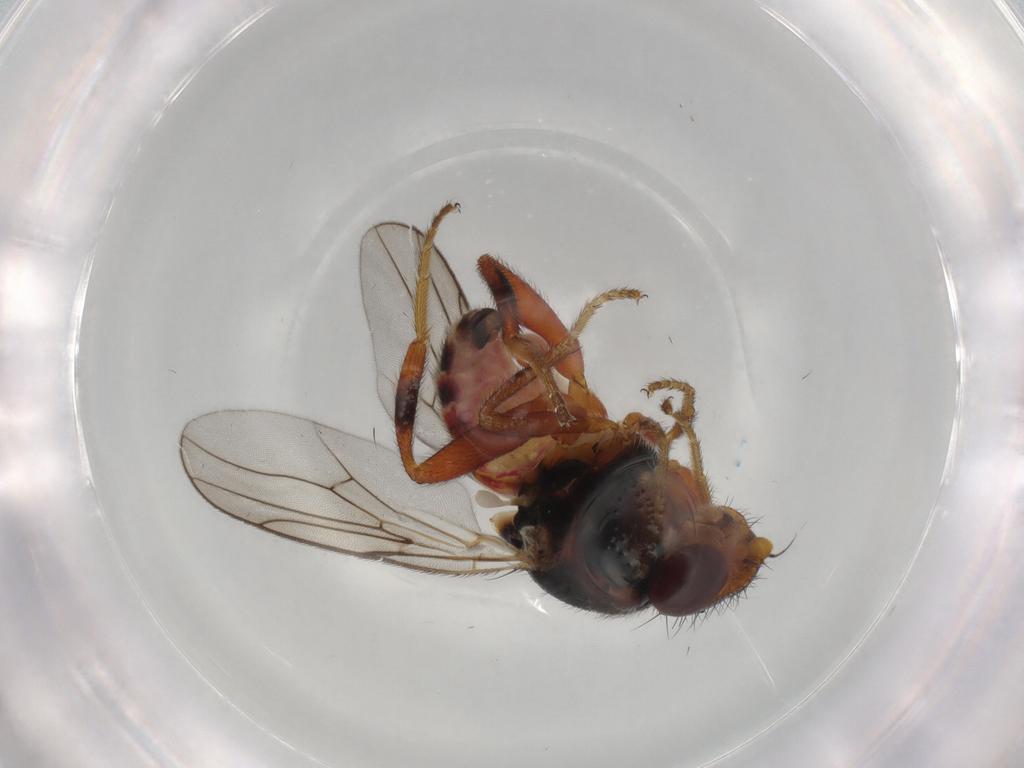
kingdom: Animalia
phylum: Arthropoda
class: Insecta
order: Diptera
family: Chloropidae
